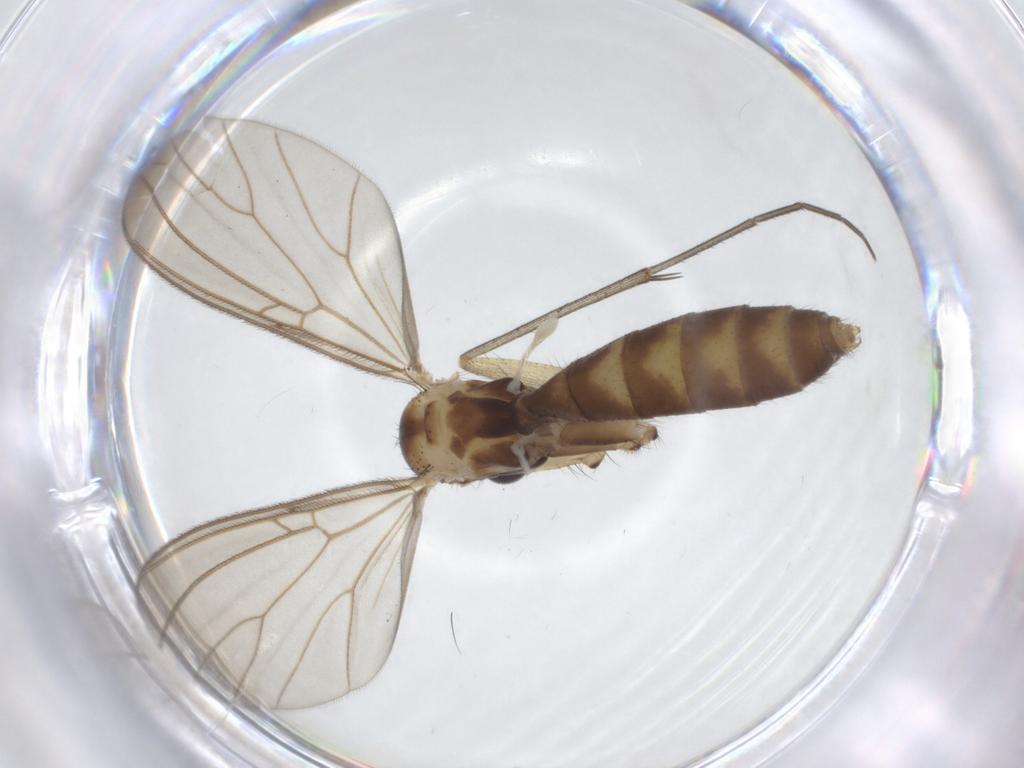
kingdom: Animalia
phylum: Arthropoda
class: Insecta
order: Diptera
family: Mycetophilidae
